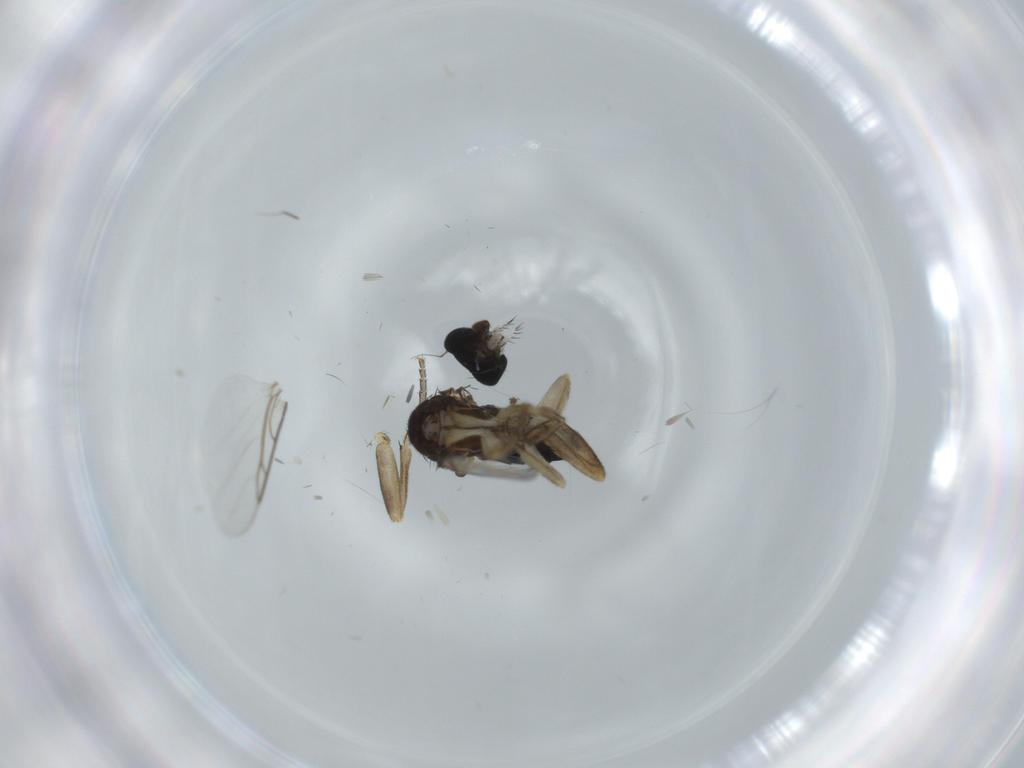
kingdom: Animalia
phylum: Arthropoda
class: Insecta
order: Diptera
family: Phoridae
